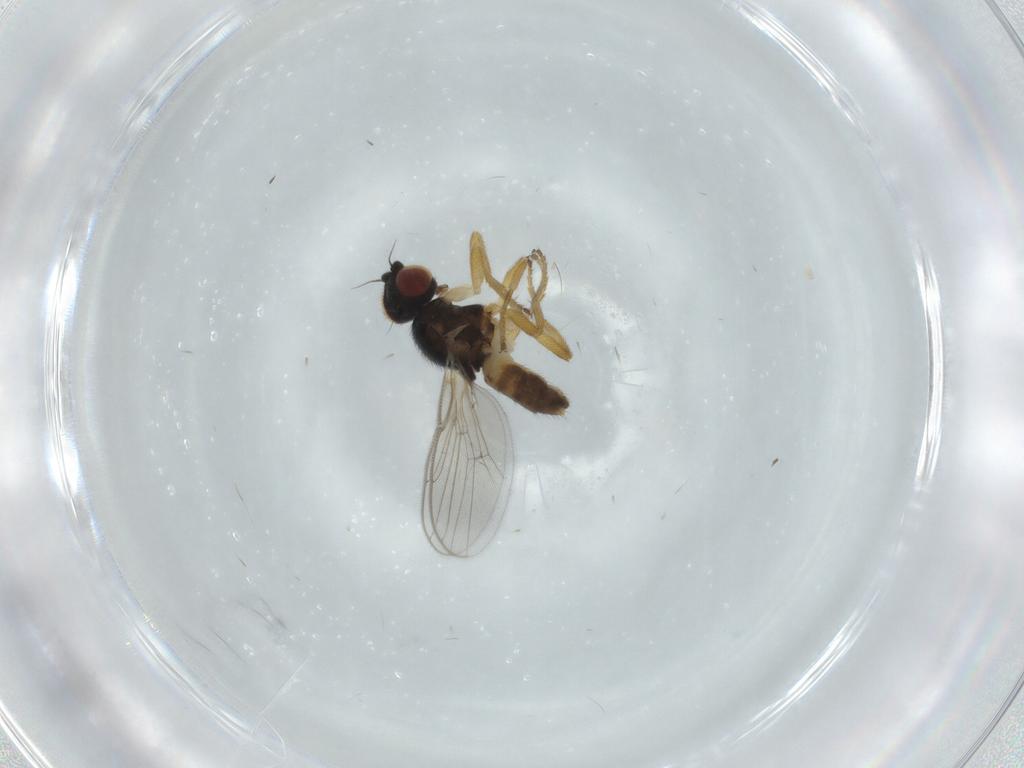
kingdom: Animalia
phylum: Arthropoda
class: Insecta
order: Diptera
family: Chloropidae
